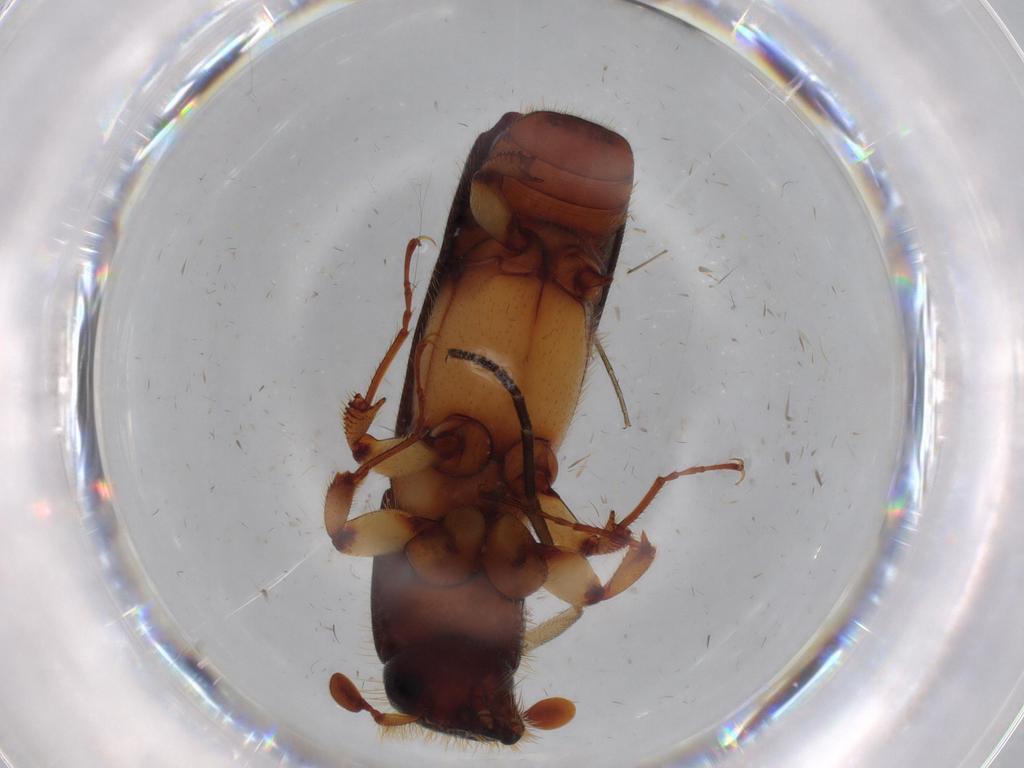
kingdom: Animalia
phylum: Arthropoda
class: Insecta
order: Coleoptera
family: Curculionidae
